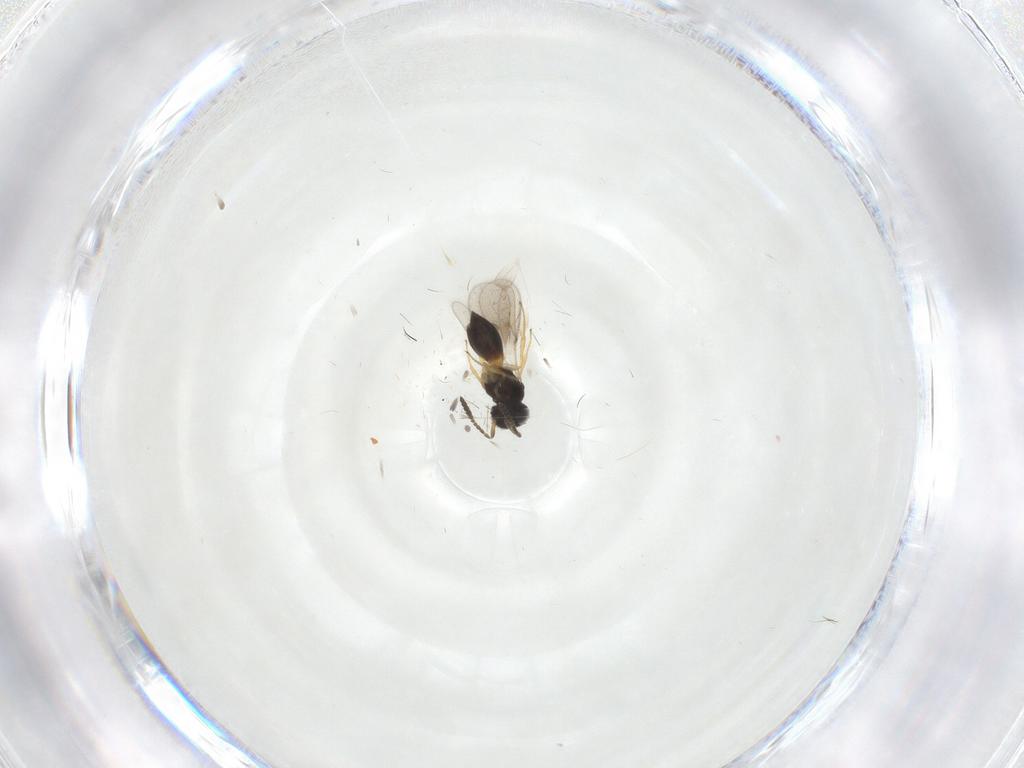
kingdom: Animalia
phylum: Arthropoda
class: Insecta
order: Hymenoptera
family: Scelionidae
